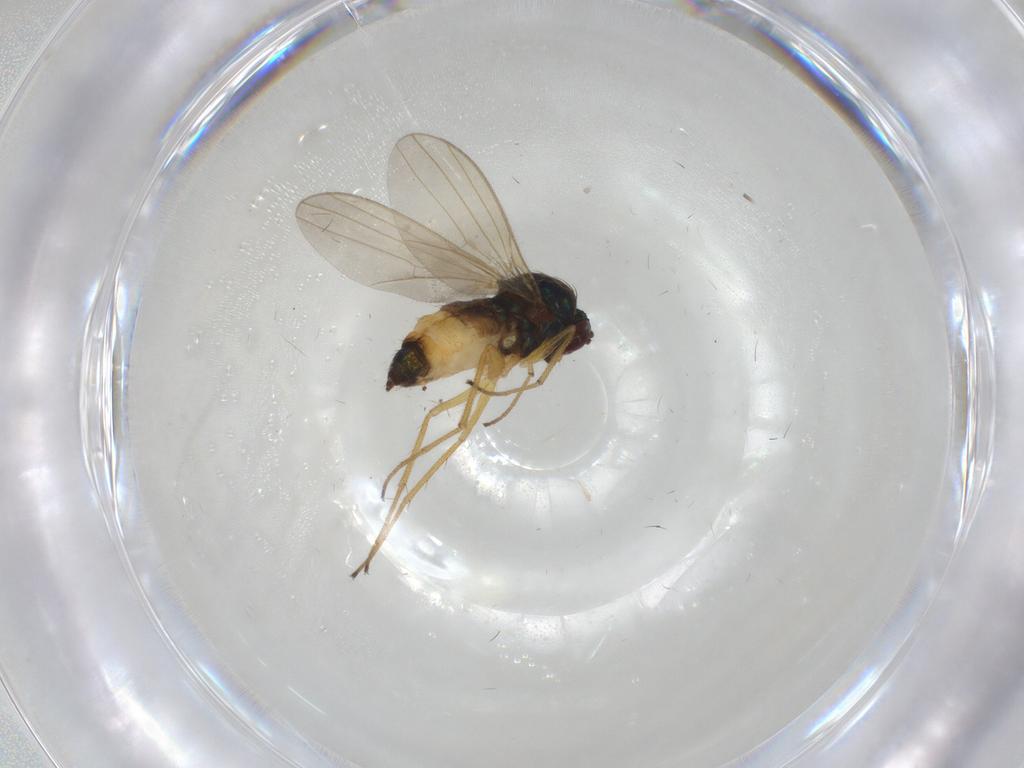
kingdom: Animalia
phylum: Arthropoda
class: Insecta
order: Diptera
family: Dolichopodidae
